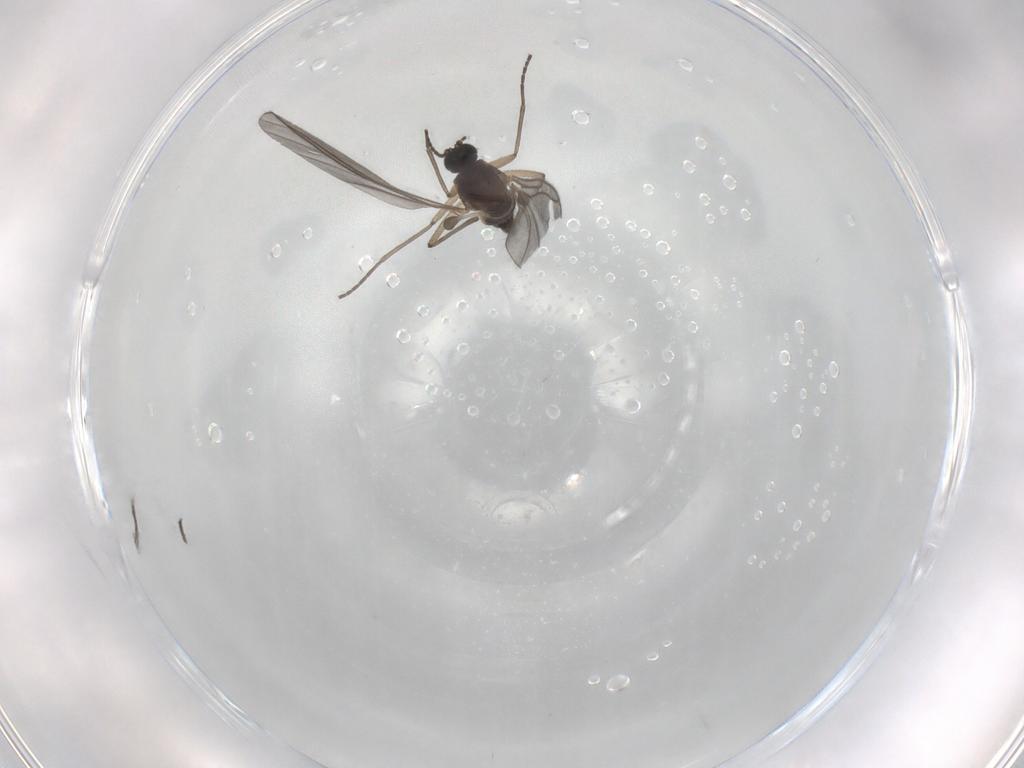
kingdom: Animalia
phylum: Arthropoda
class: Insecta
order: Diptera
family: Sciaridae
